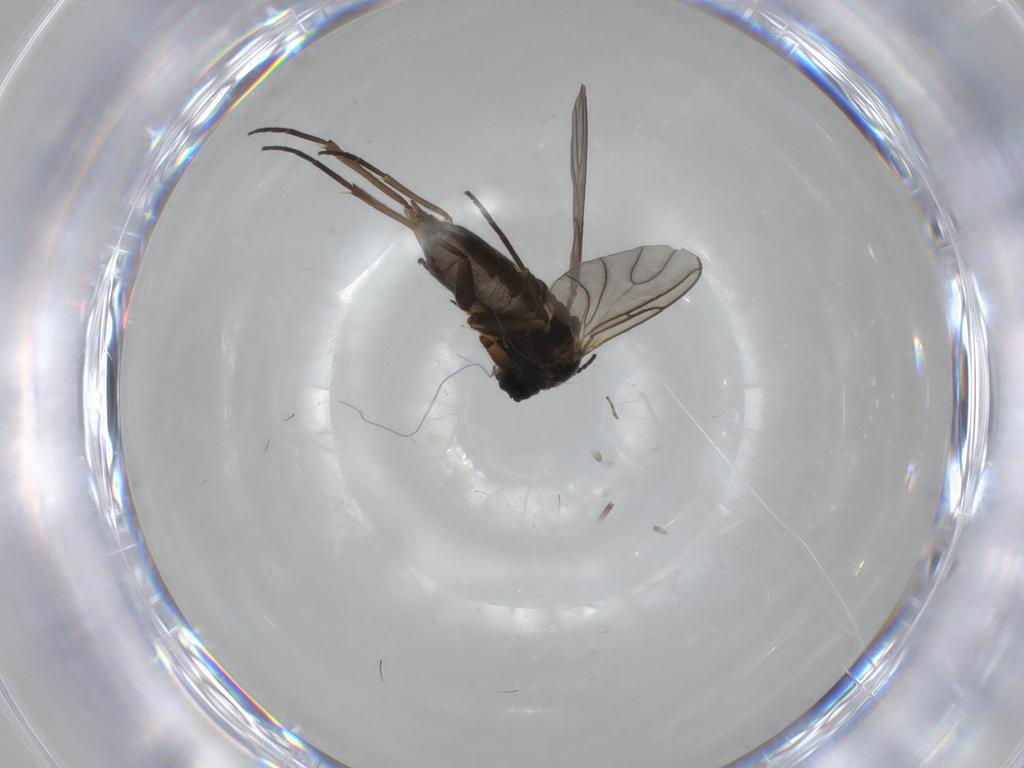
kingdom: Animalia
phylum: Arthropoda
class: Insecta
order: Diptera
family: Sciaridae
